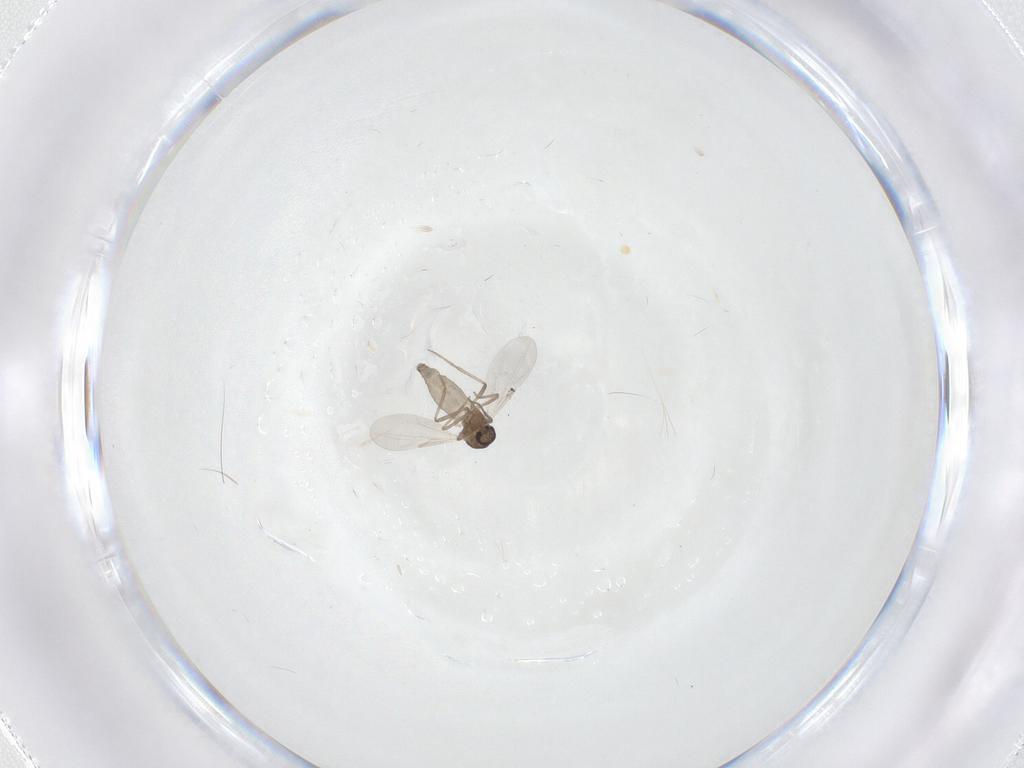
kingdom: Animalia
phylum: Arthropoda
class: Insecta
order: Diptera
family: Ceratopogonidae
